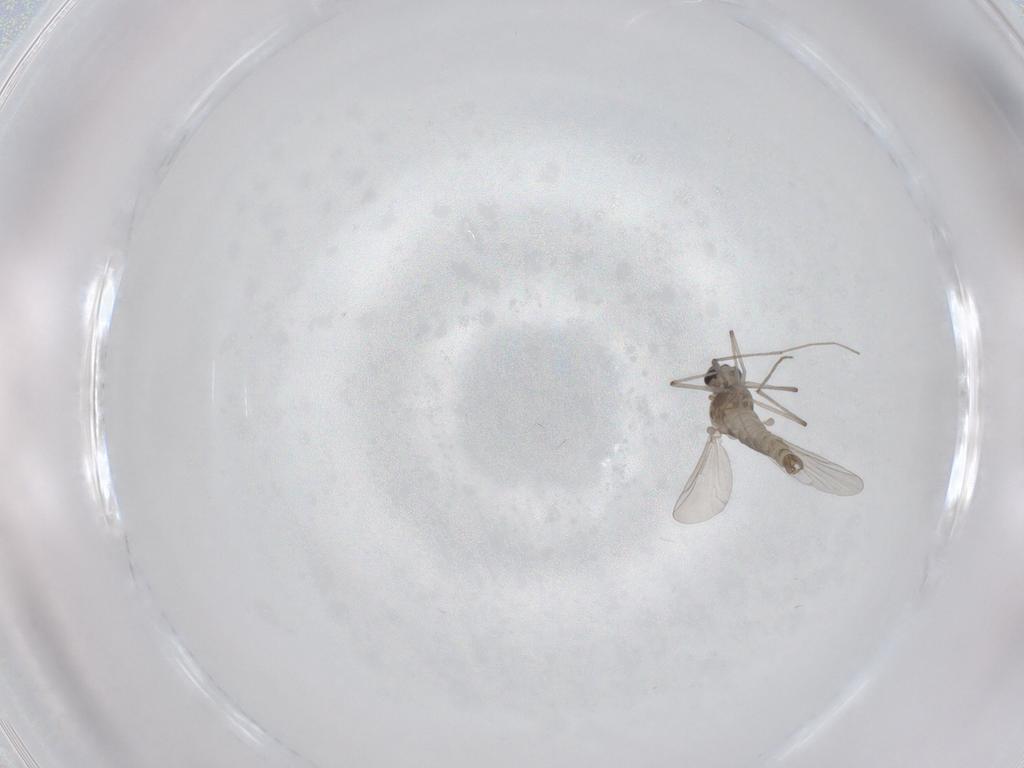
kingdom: Animalia
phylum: Arthropoda
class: Insecta
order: Diptera
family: Chironomidae
